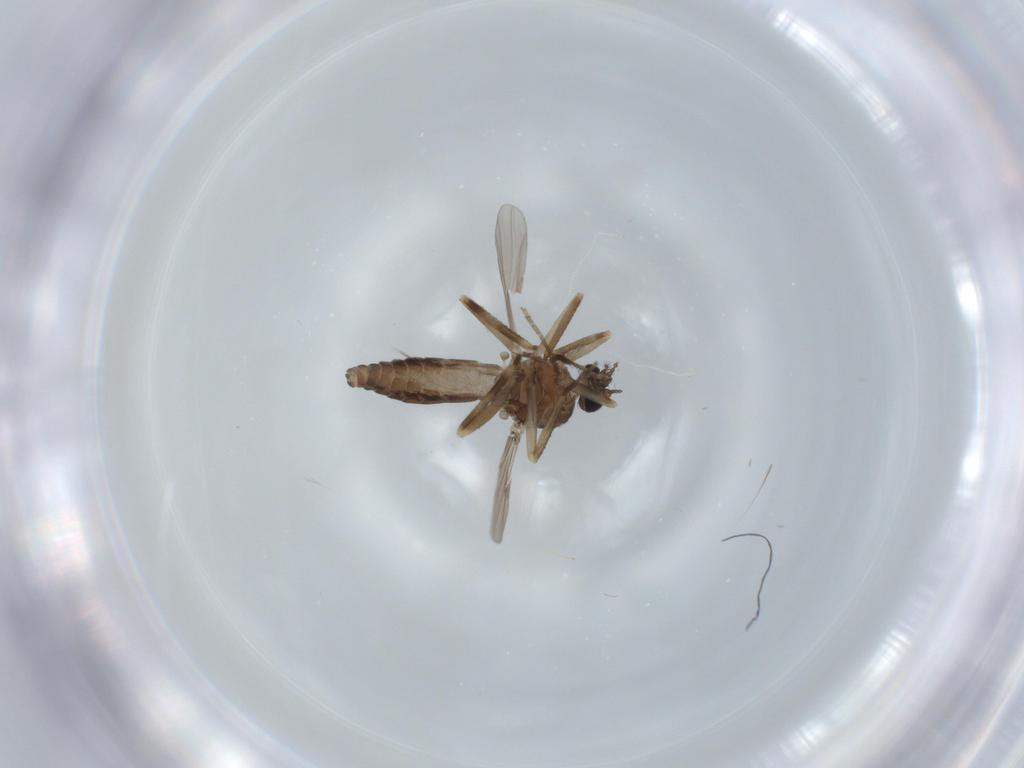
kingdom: Animalia
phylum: Arthropoda
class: Insecta
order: Diptera
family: Ceratopogonidae
